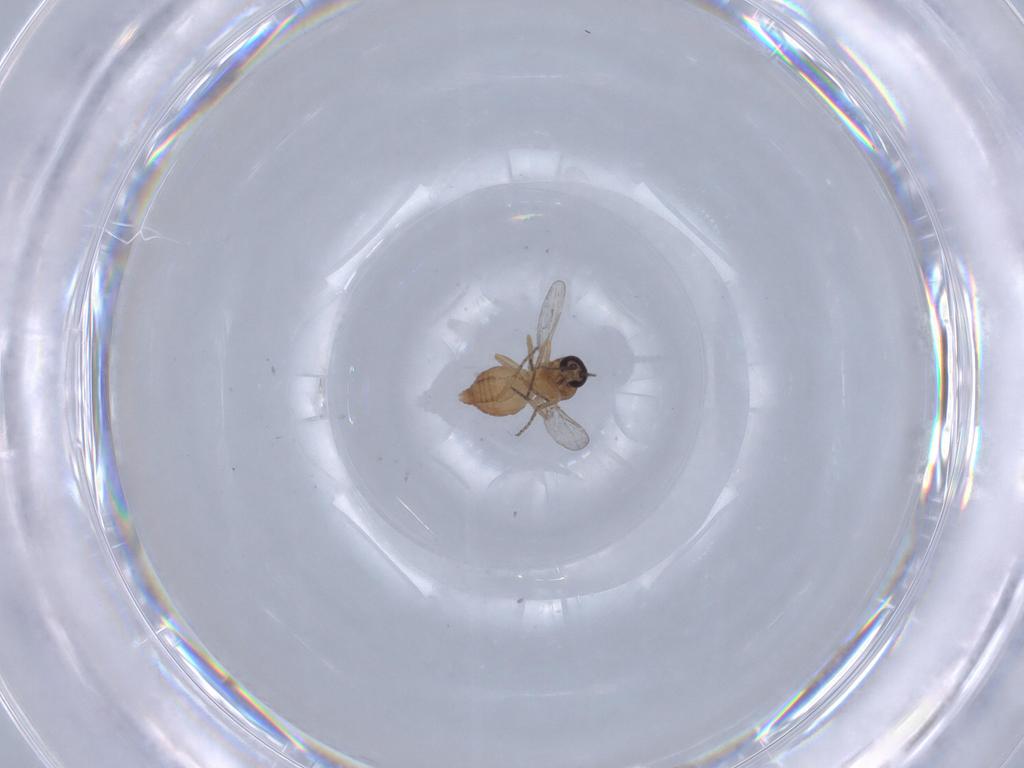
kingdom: Animalia
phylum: Arthropoda
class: Insecta
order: Diptera
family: Ceratopogonidae
